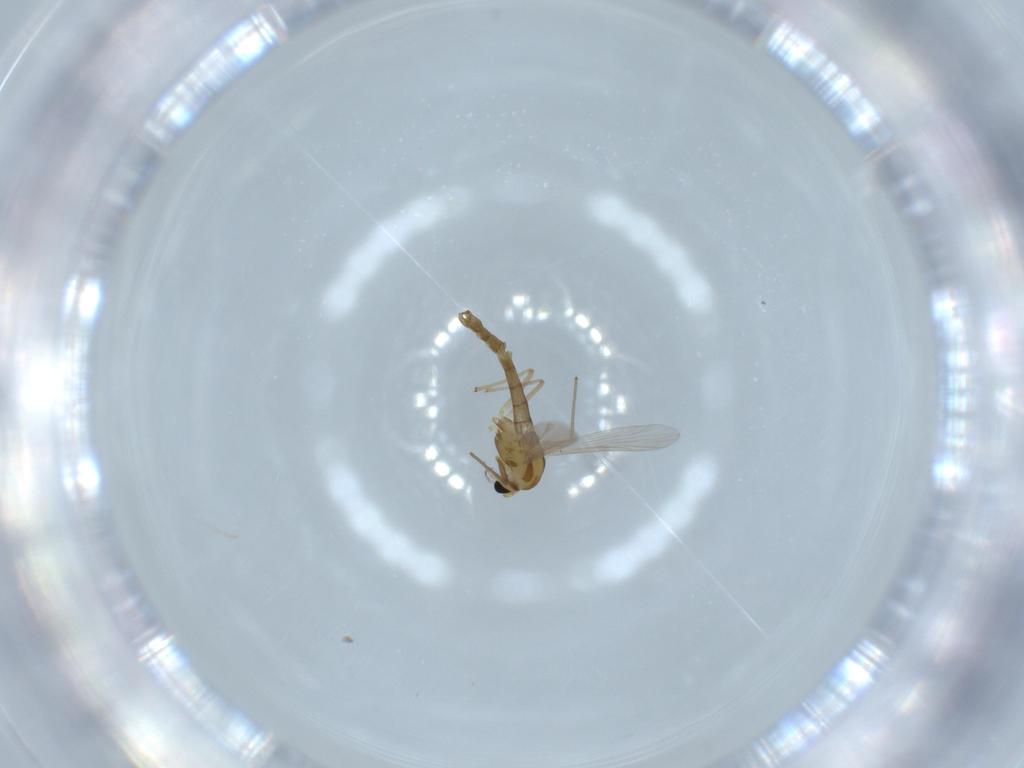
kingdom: Animalia
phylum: Arthropoda
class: Insecta
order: Diptera
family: Chironomidae
